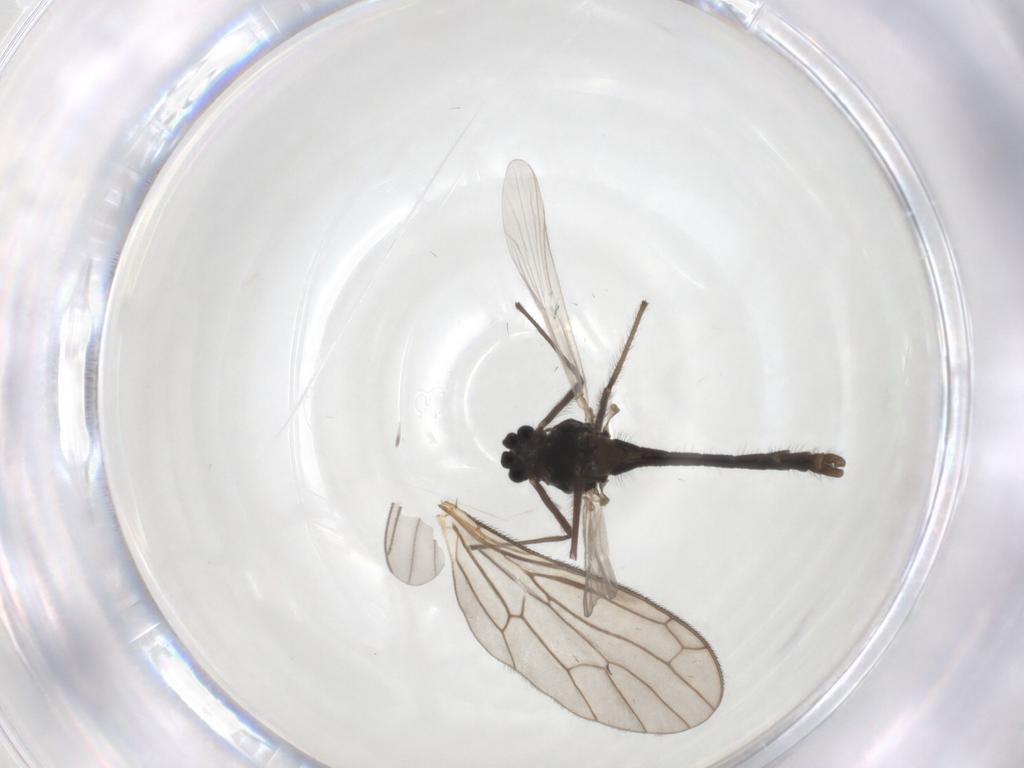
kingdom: Animalia
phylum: Arthropoda
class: Insecta
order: Diptera
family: Chironomidae
